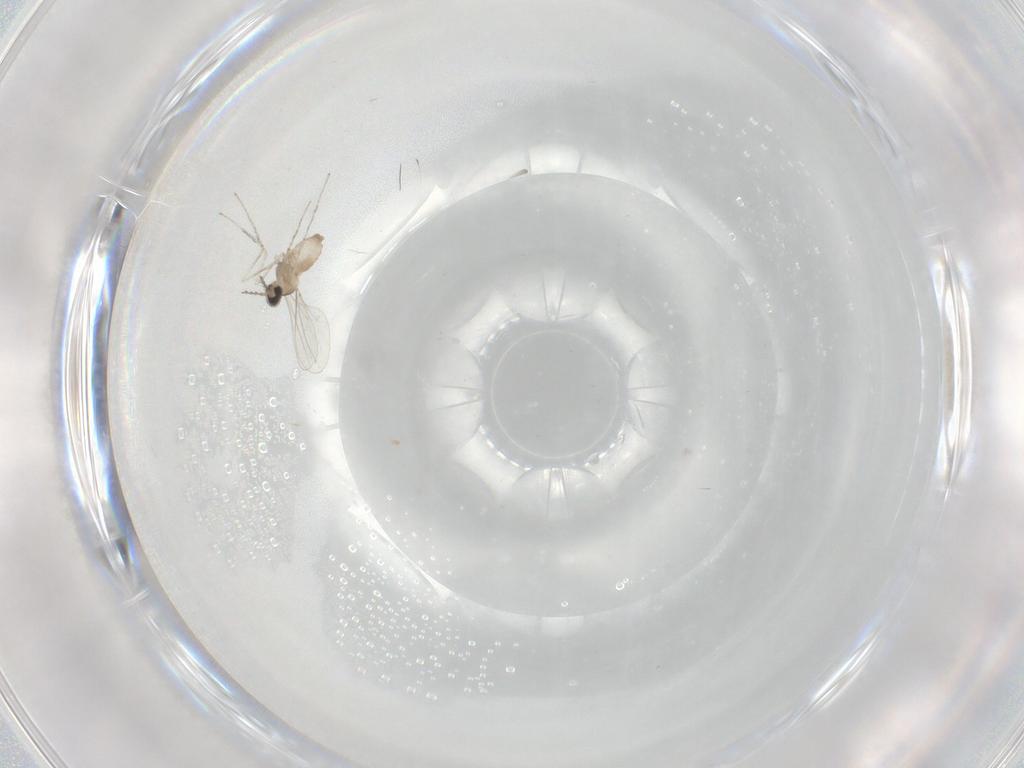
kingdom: Animalia
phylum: Arthropoda
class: Insecta
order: Diptera
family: Cecidomyiidae
